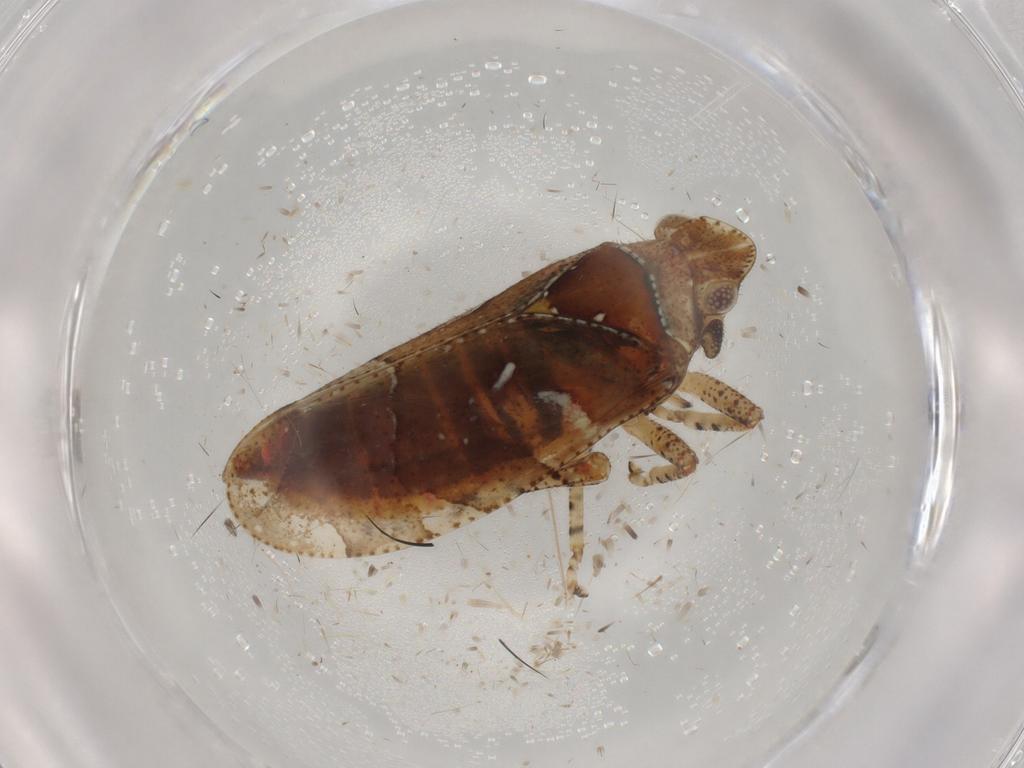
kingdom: Animalia
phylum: Arthropoda
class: Insecta
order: Hemiptera
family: Tettigometridae
